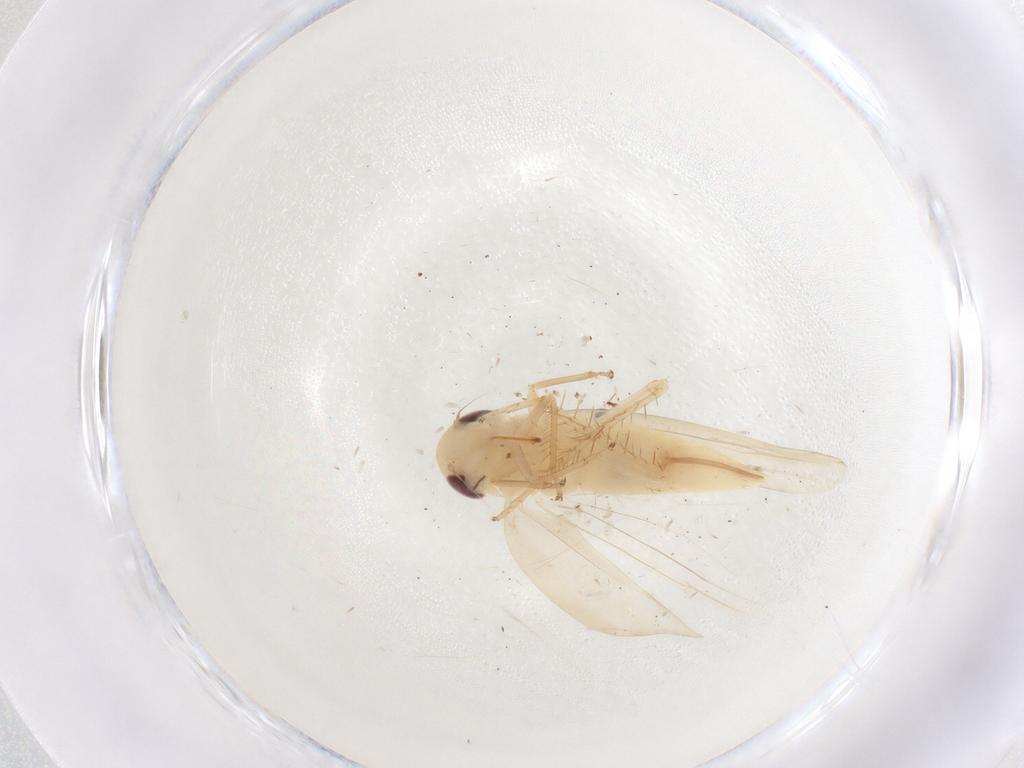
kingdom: Animalia
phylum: Arthropoda
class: Insecta
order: Hemiptera
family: Cicadellidae
